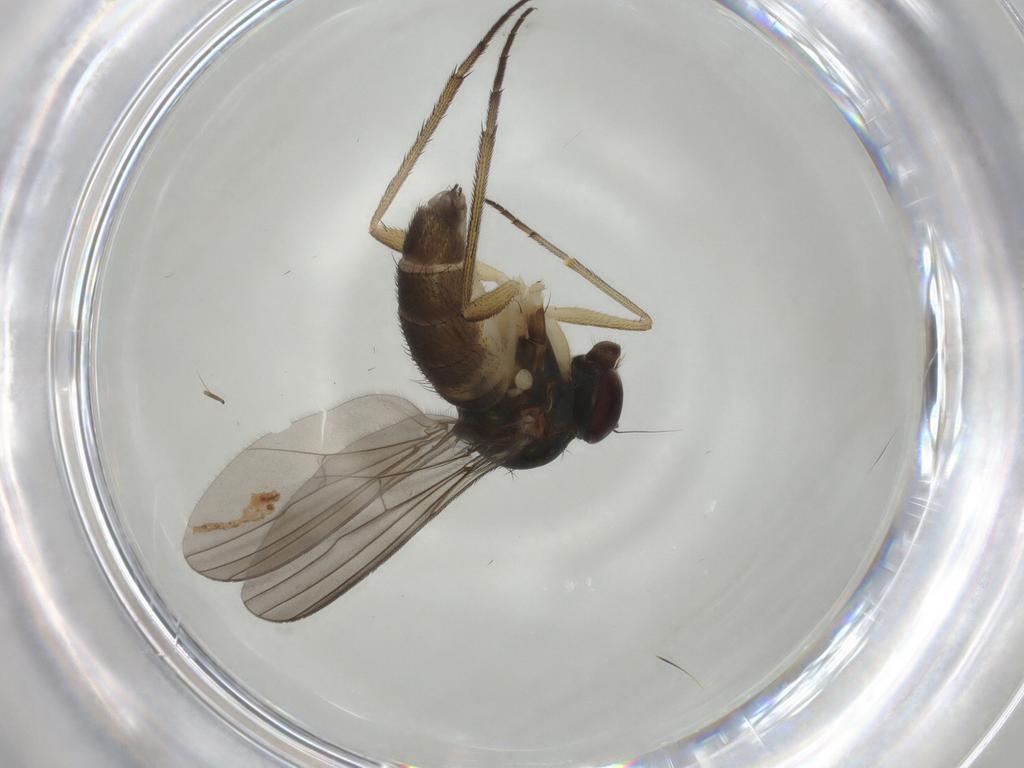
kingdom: Animalia
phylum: Arthropoda
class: Insecta
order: Diptera
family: Dolichopodidae
